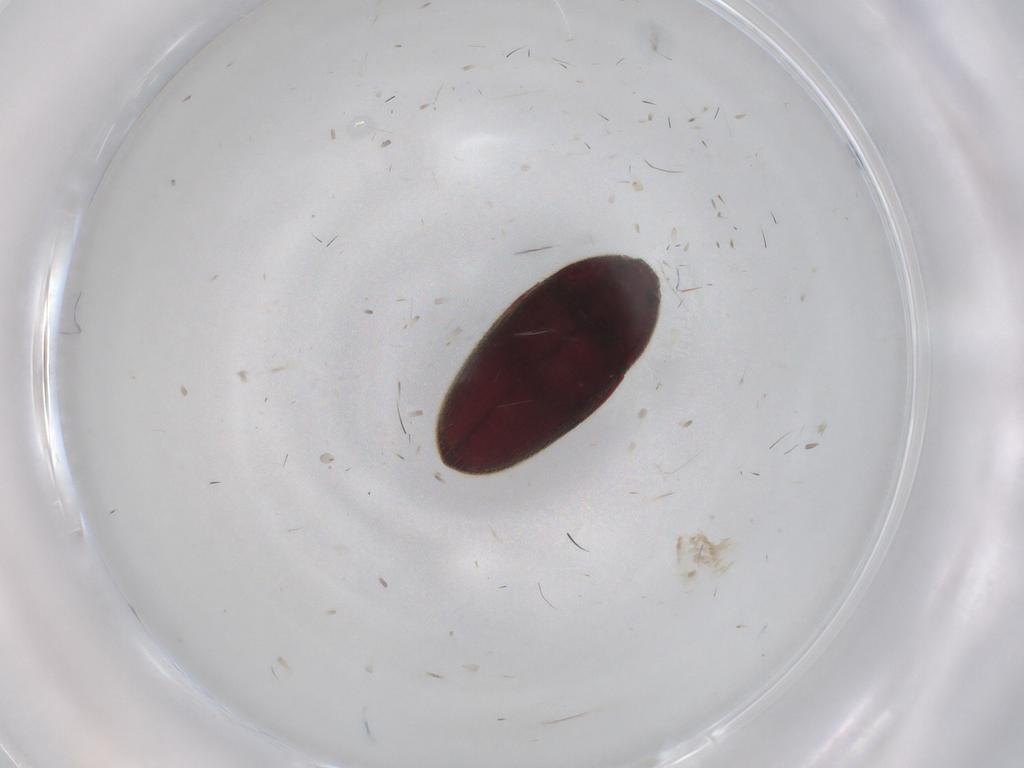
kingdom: Animalia
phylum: Arthropoda
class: Insecta
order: Coleoptera
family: Throscidae
